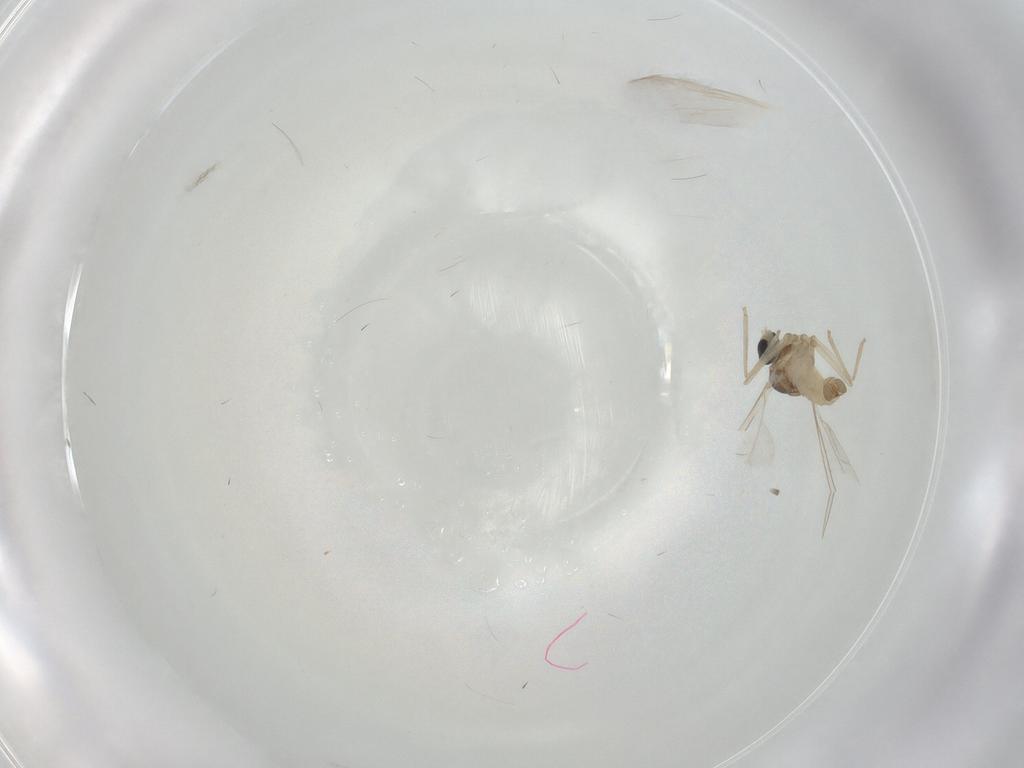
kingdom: Animalia
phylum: Arthropoda
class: Insecta
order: Diptera
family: Cecidomyiidae
